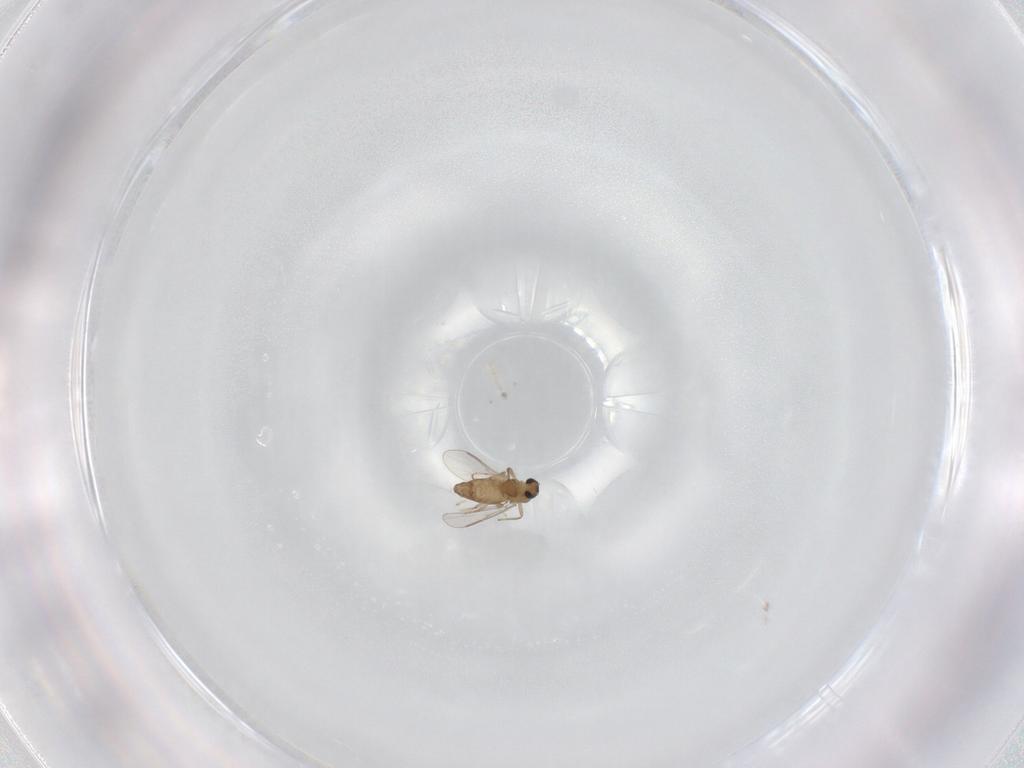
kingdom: Animalia
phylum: Arthropoda
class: Insecta
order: Diptera
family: Chironomidae
